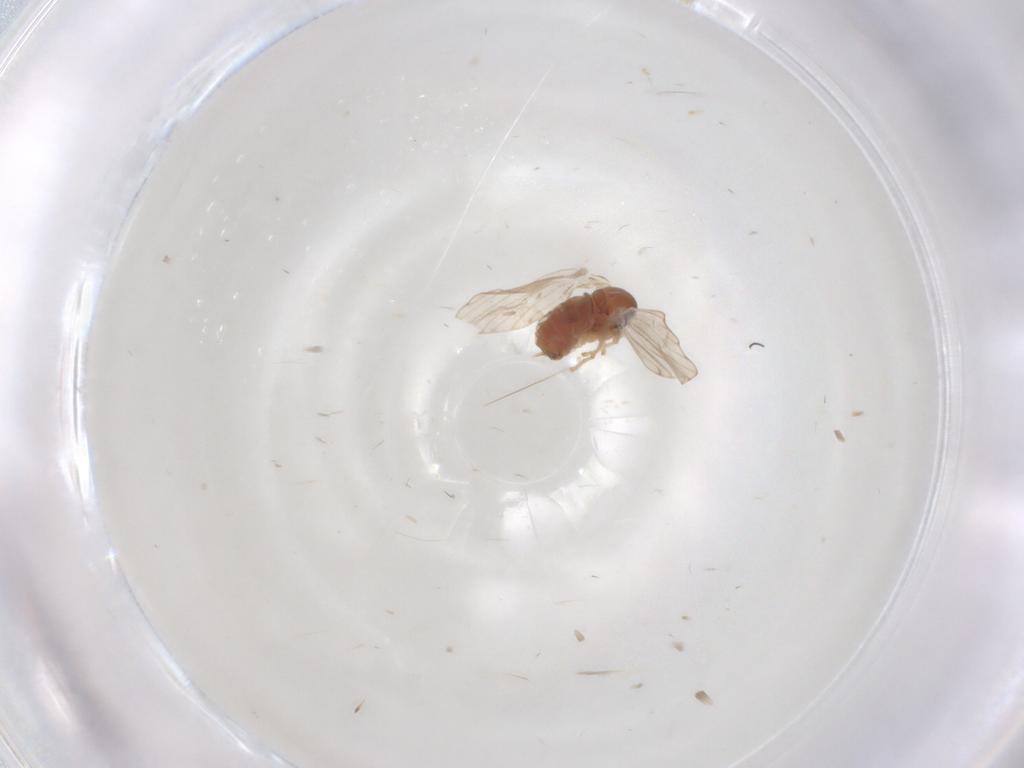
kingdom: Animalia
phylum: Arthropoda
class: Insecta
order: Diptera
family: Psychodidae
